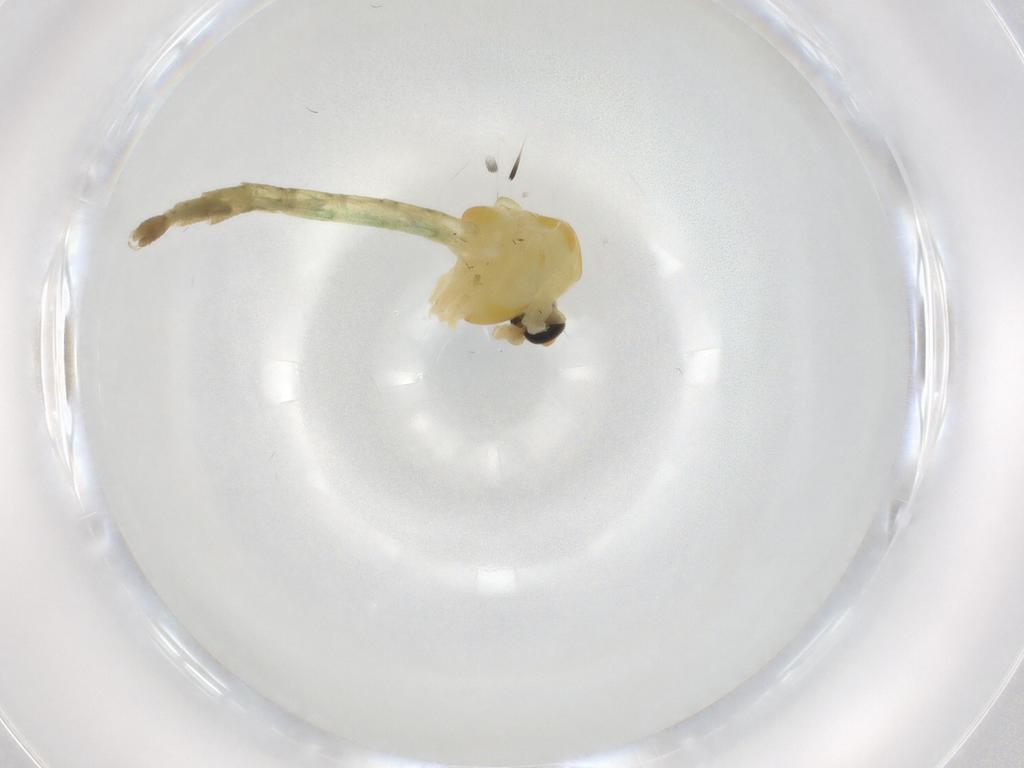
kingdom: Animalia
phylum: Arthropoda
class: Insecta
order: Diptera
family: Chironomidae
